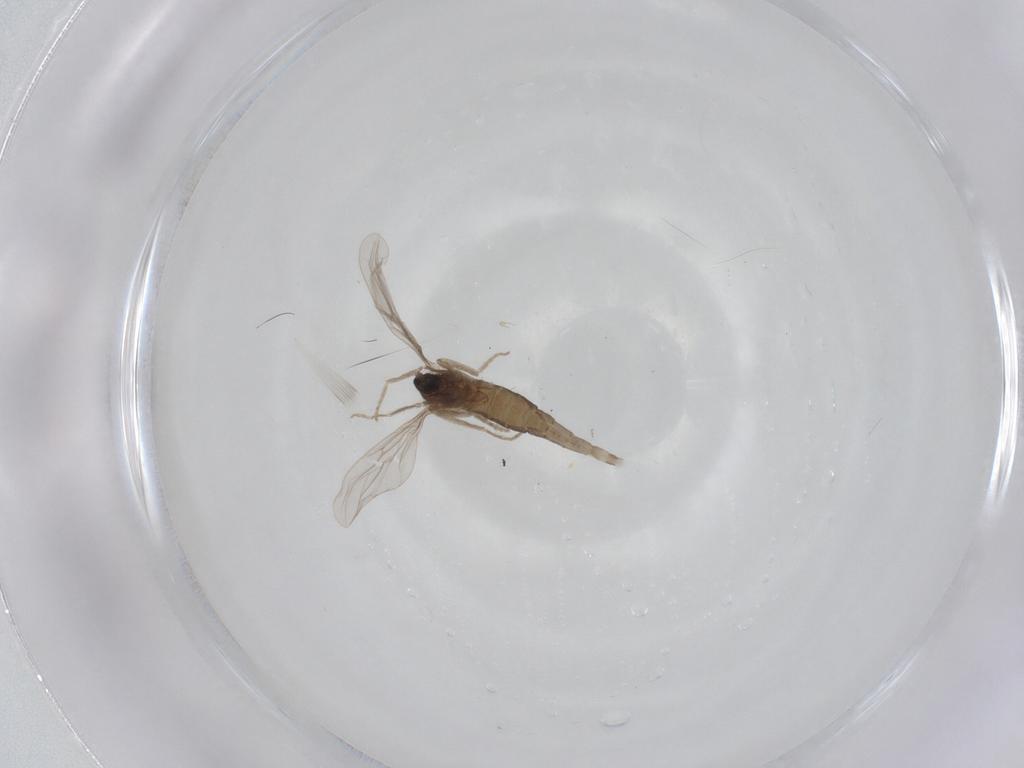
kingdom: Animalia
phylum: Arthropoda
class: Insecta
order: Diptera
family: Cecidomyiidae
